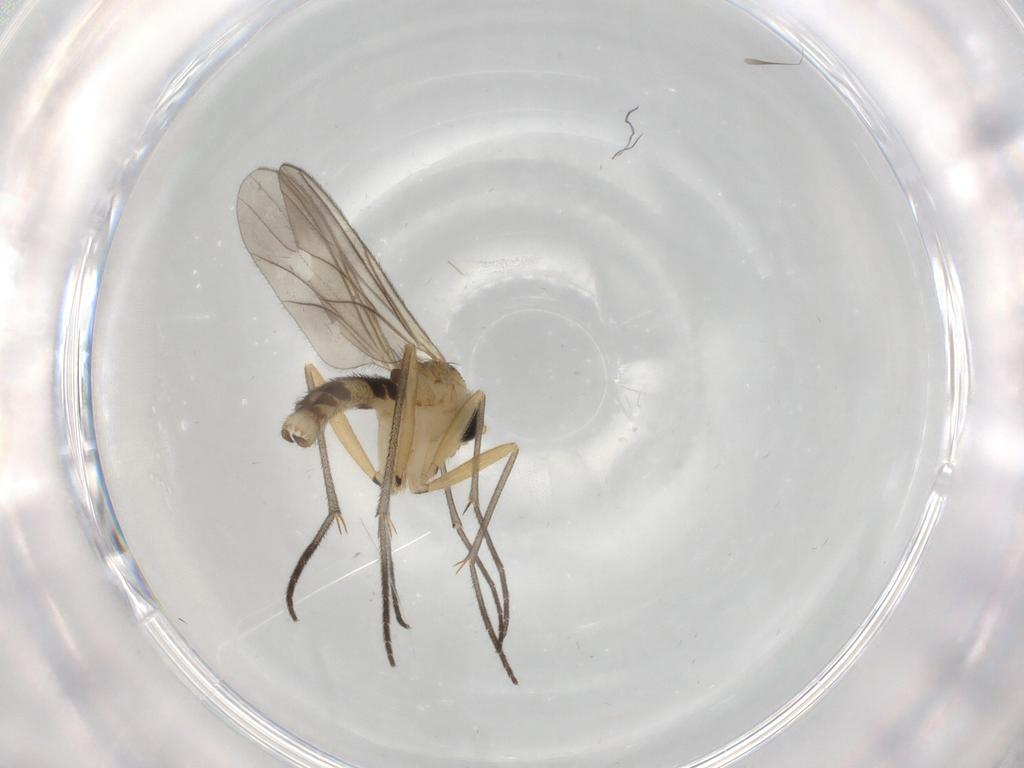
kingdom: Animalia
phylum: Arthropoda
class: Insecta
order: Diptera
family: Sciaridae
